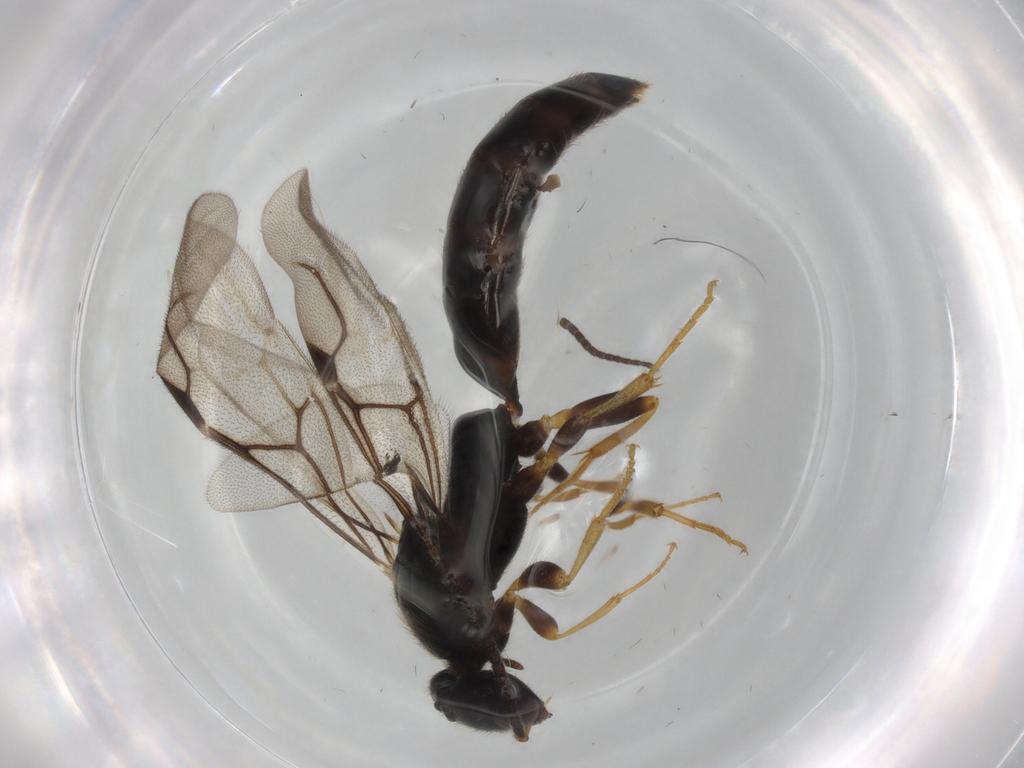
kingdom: Animalia
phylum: Arthropoda
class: Insecta
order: Hymenoptera
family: Bethylidae
